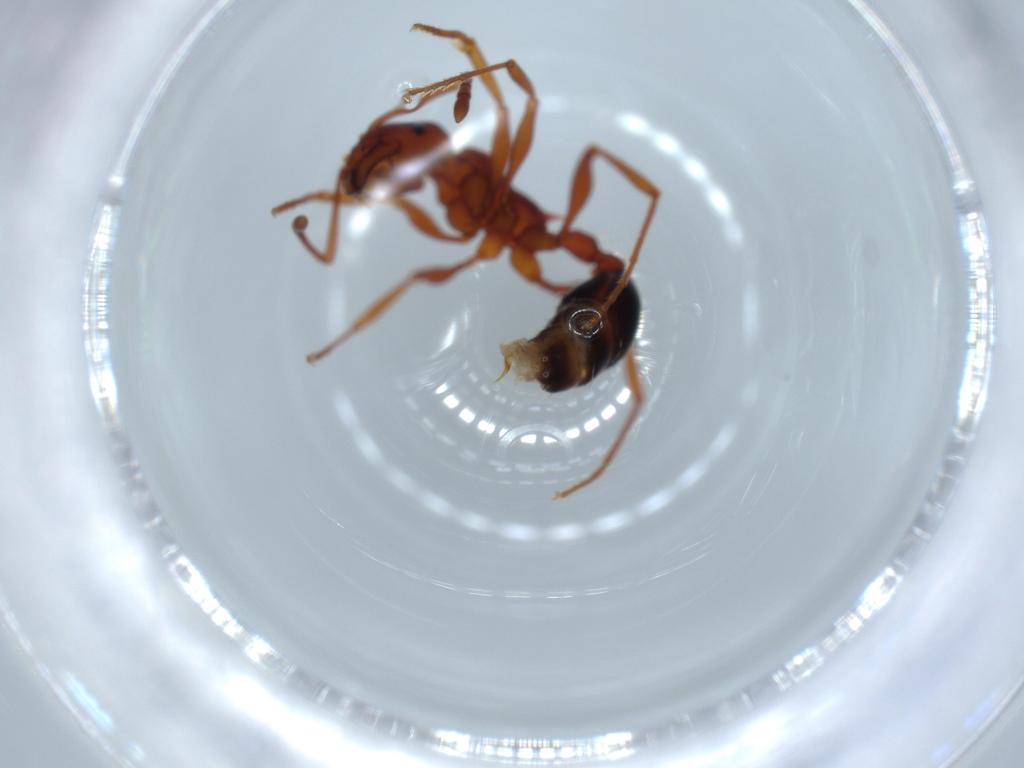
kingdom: Animalia
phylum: Arthropoda
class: Insecta
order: Hymenoptera
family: Formicidae
